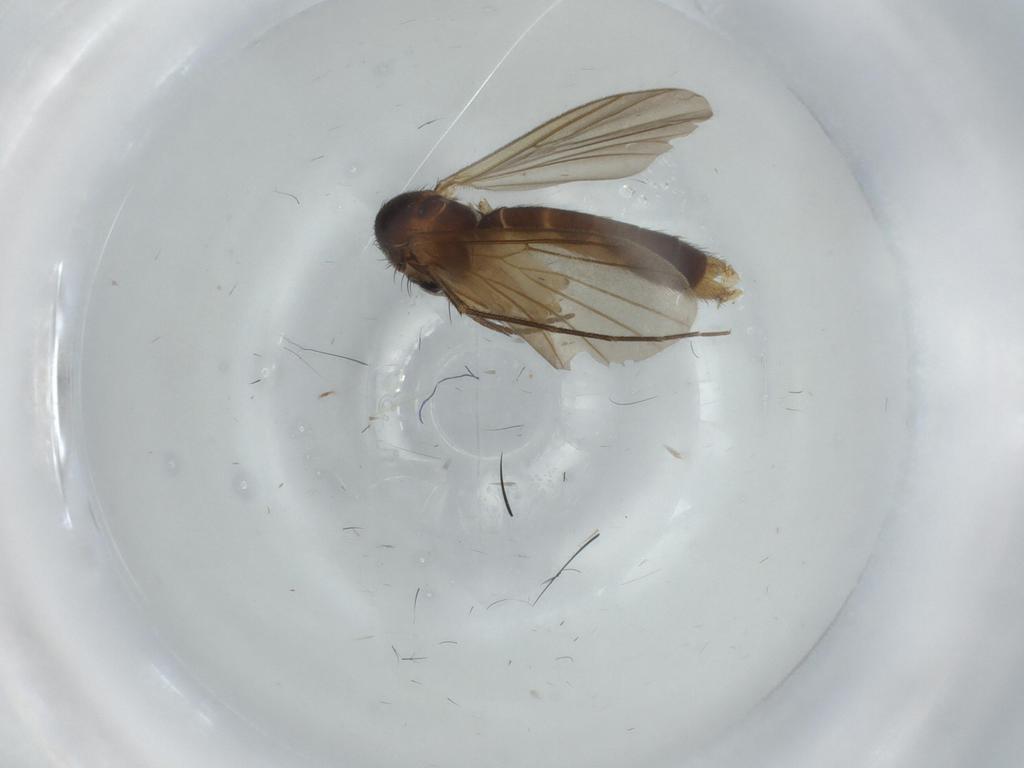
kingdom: Animalia
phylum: Arthropoda
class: Insecta
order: Diptera
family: Mycetophilidae
